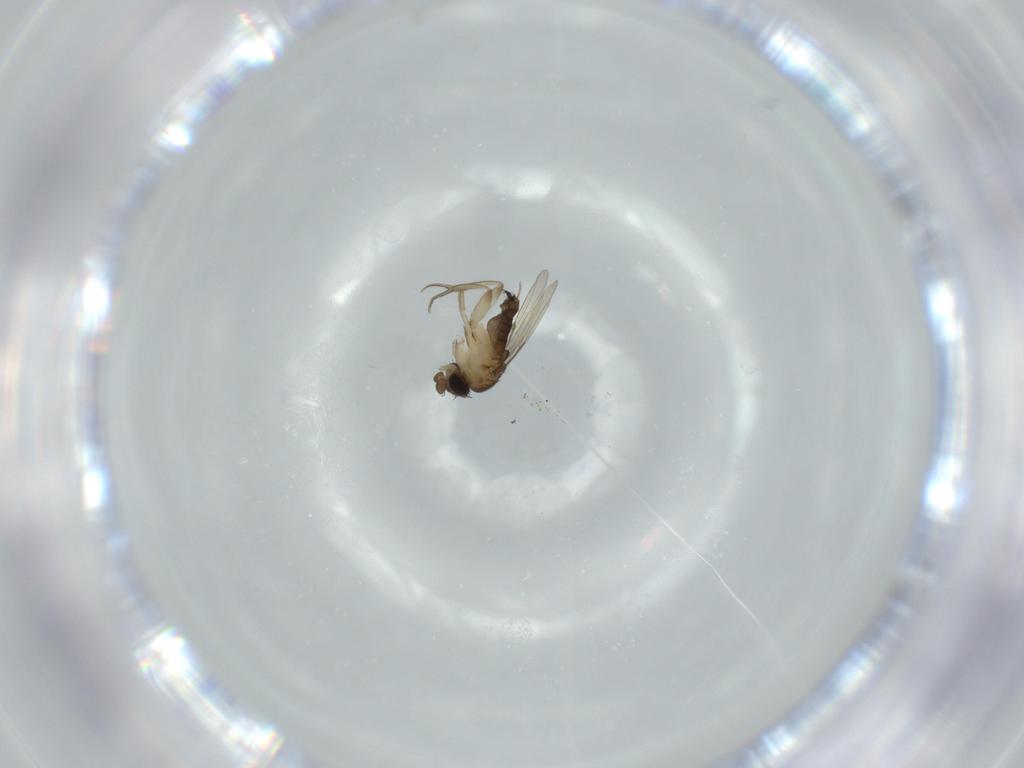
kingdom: Animalia
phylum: Arthropoda
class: Insecta
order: Diptera
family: Phoridae
